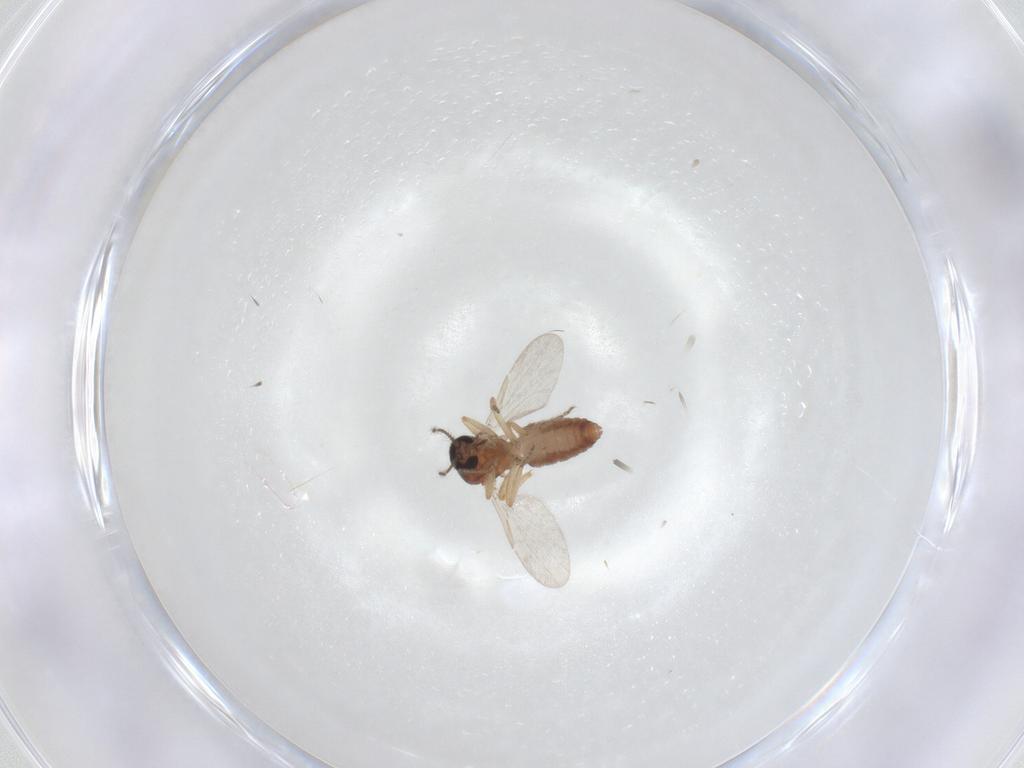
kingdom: Animalia
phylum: Arthropoda
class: Insecta
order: Diptera
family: Ceratopogonidae
